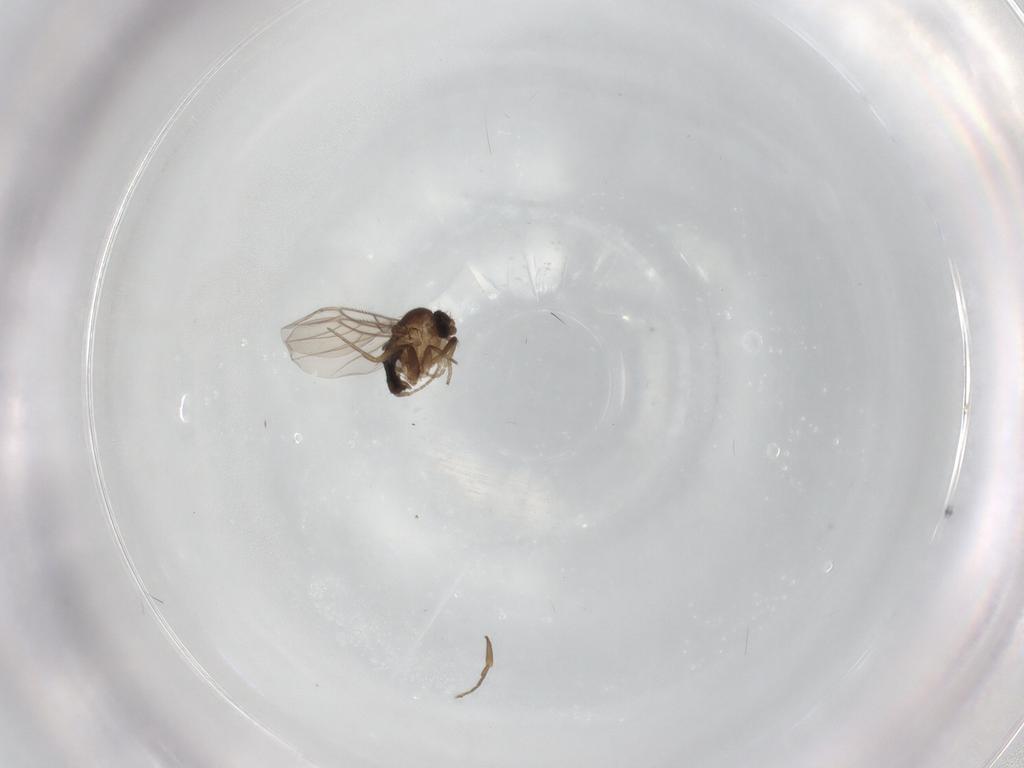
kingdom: Animalia
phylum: Arthropoda
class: Insecta
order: Diptera
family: Phoridae
